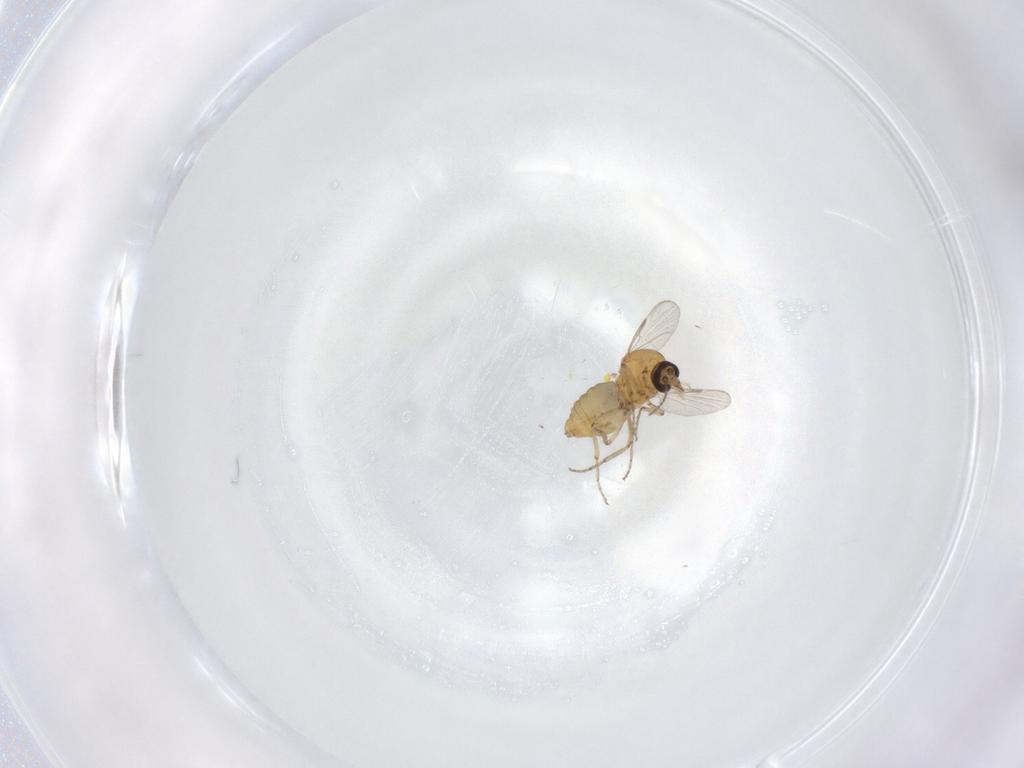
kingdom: Animalia
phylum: Arthropoda
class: Insecta
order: Diptera
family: Ceratopogonidae
